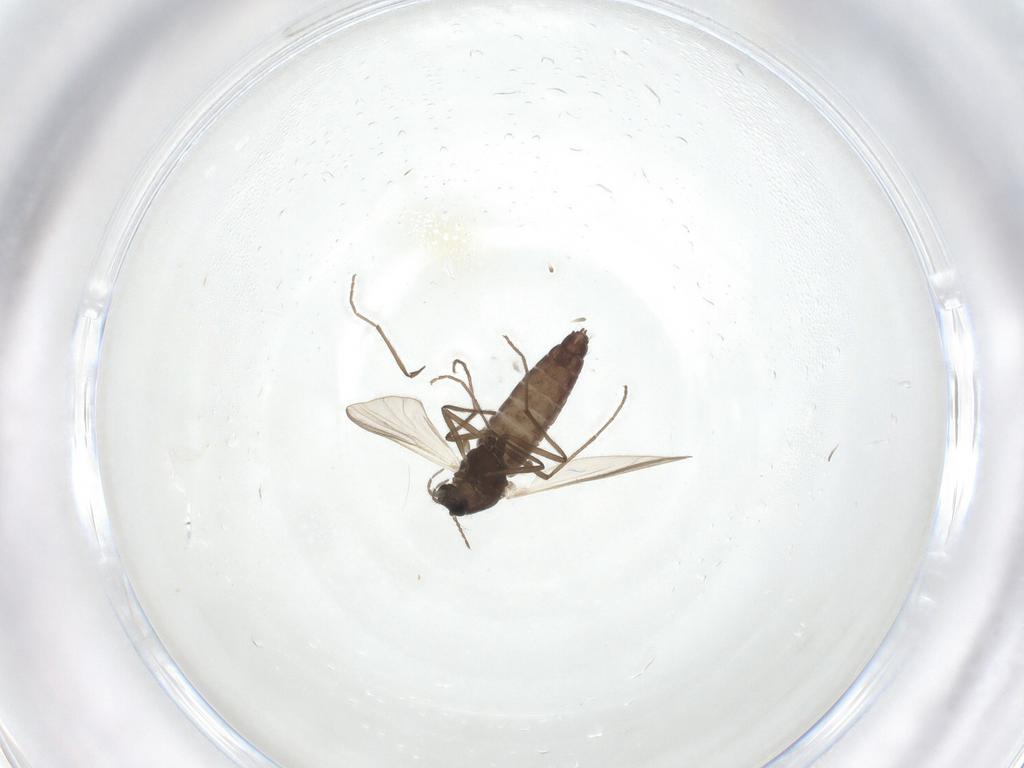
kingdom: Animalia
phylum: Arthropoda
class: Insecta
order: Diptera
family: Chironomidae
